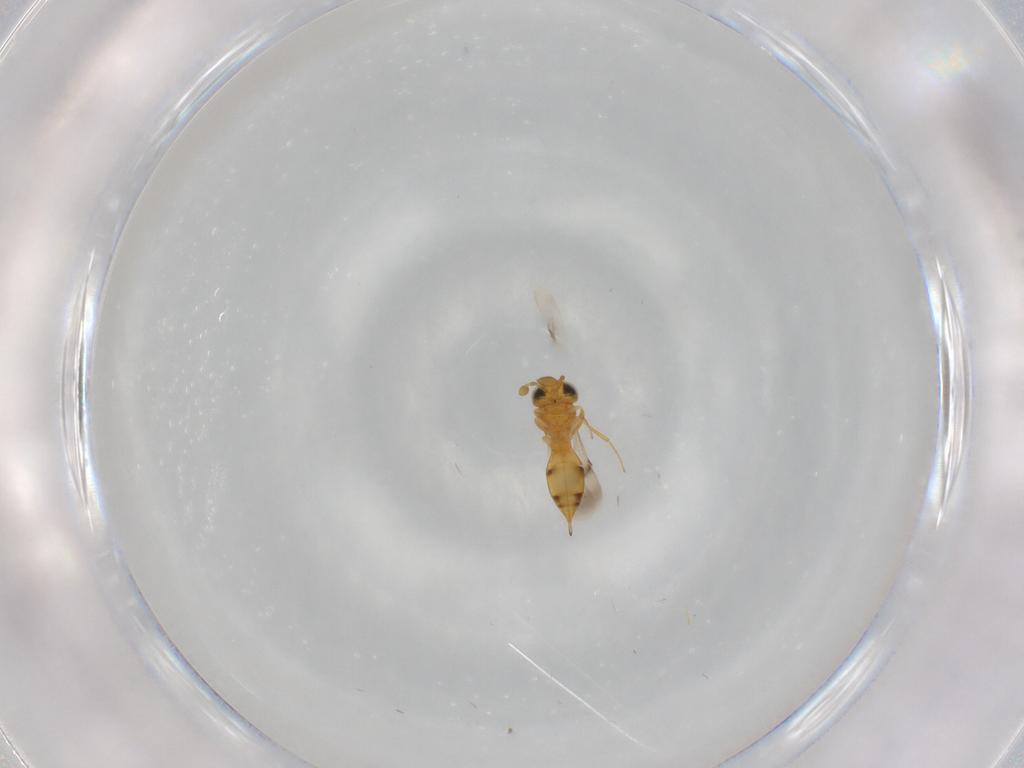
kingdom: Animalia
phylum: Arthropoda
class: Insecta
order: Hymenoptera
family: Scelionidae
